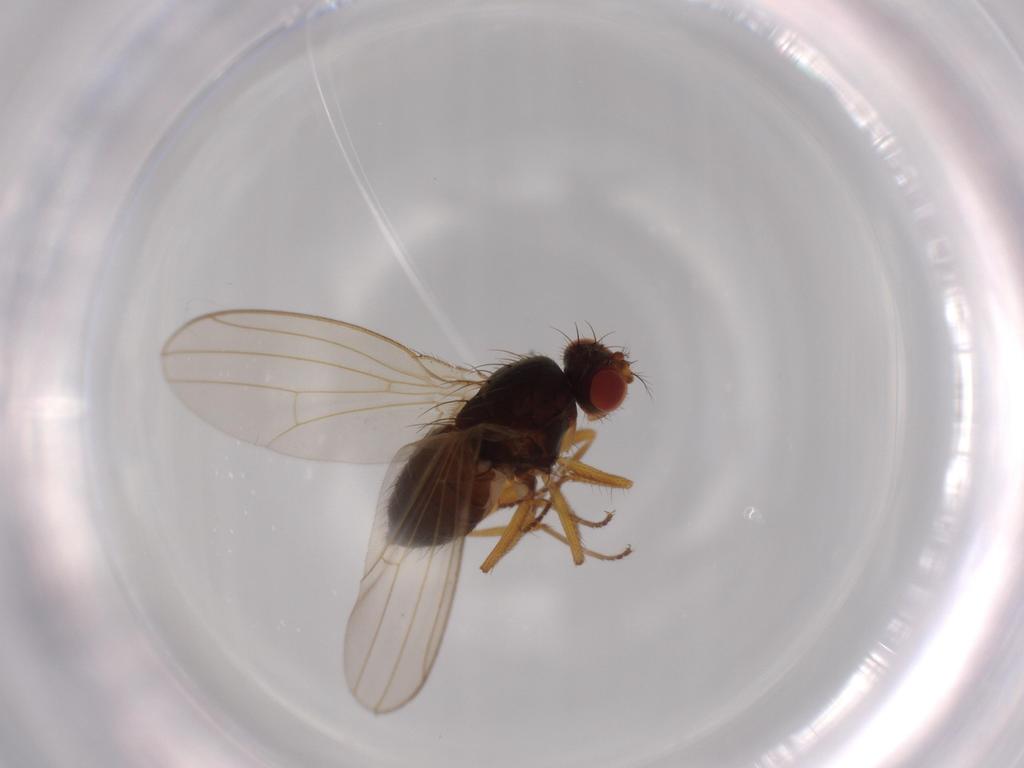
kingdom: Animalia
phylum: Arthropoda
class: Insecta
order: Diptera
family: Drosophilidae
